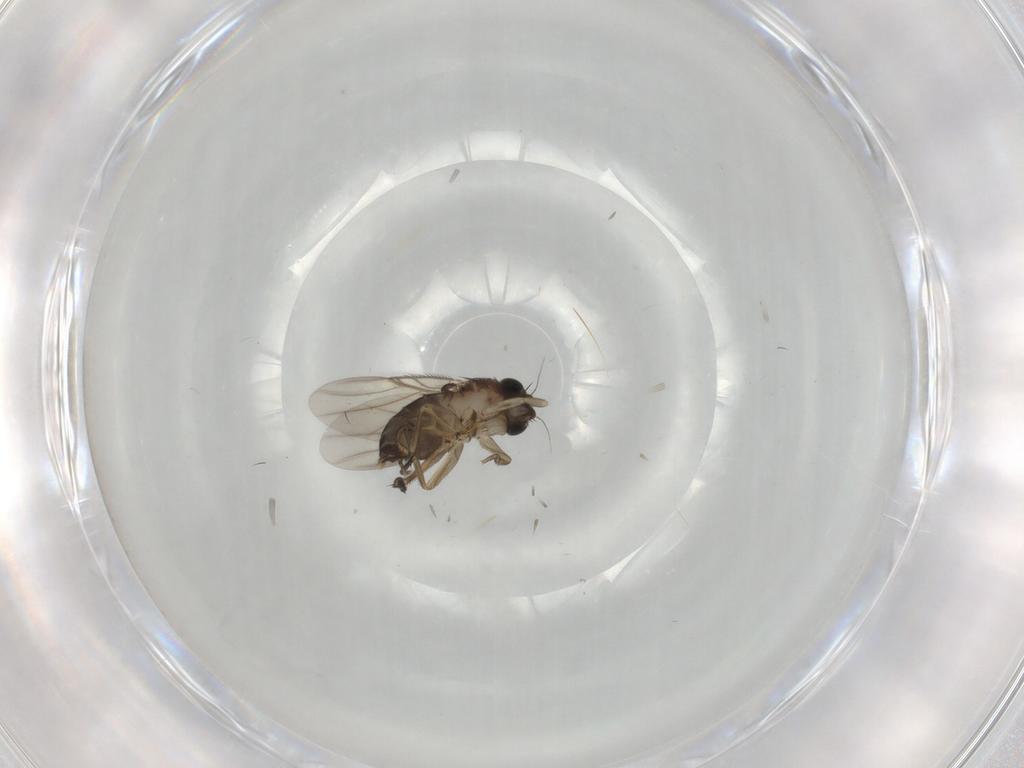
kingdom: Animalia
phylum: Arthropoda
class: Insecta
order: Diptera
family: Phoridae
